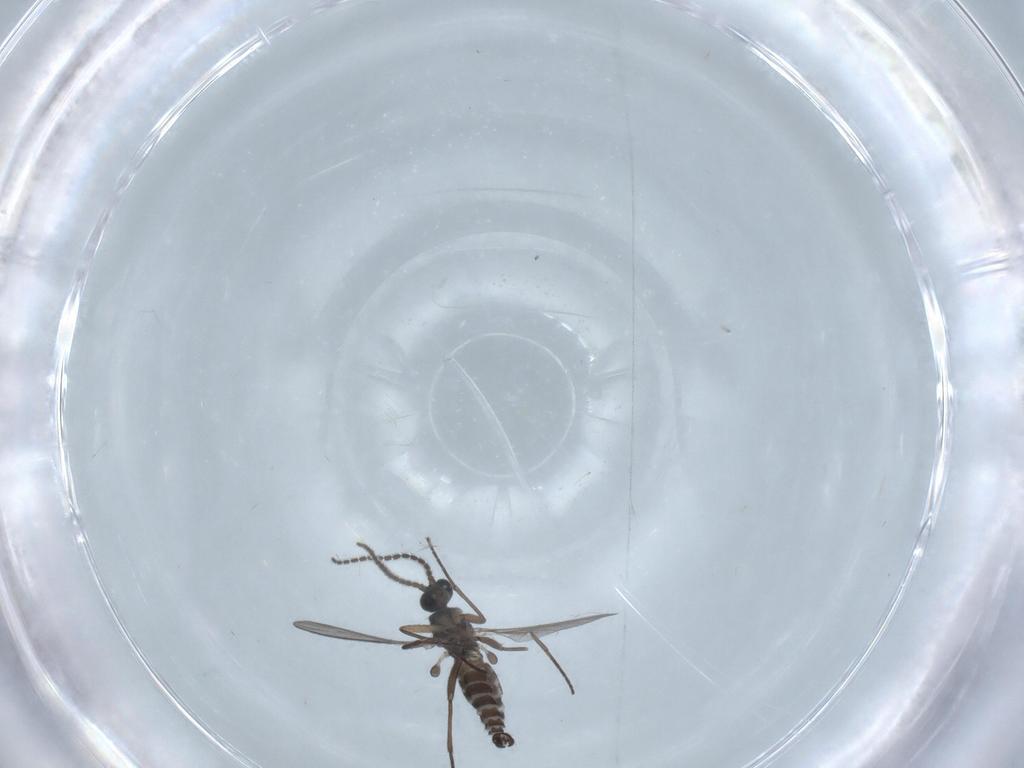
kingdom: Animalia
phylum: Arthropoda
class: Insecta
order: Diptera
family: Sciaridae
